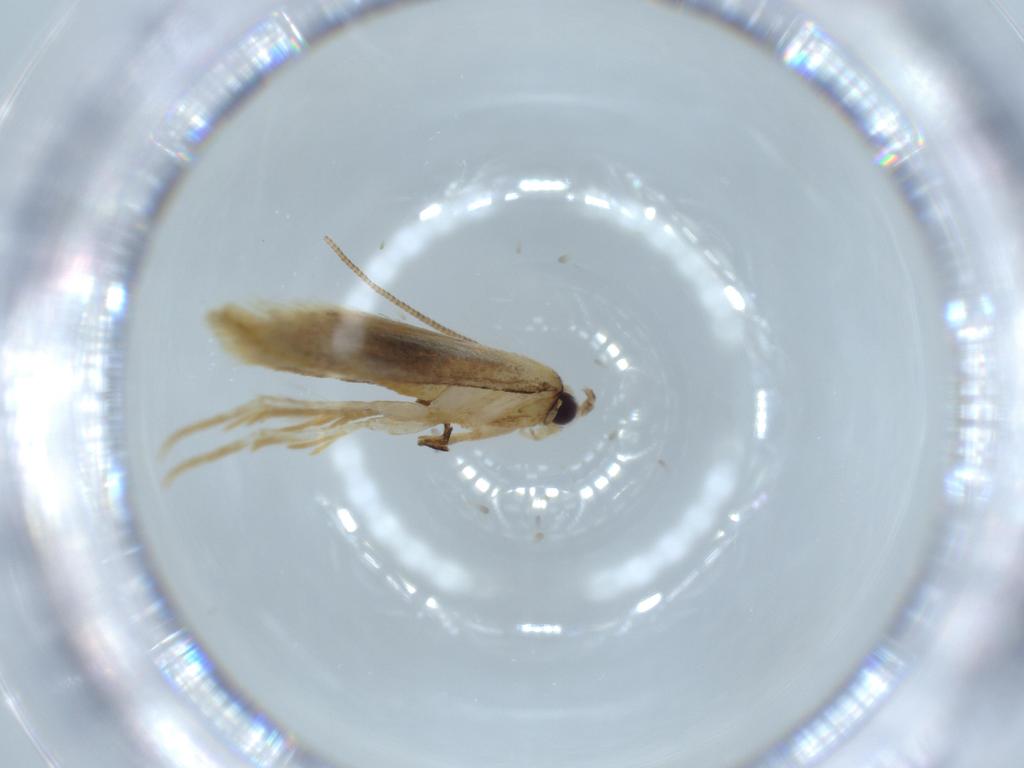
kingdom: Animalia
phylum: Arthropoda
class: Insecta
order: Lepidoptera
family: Tineidae
